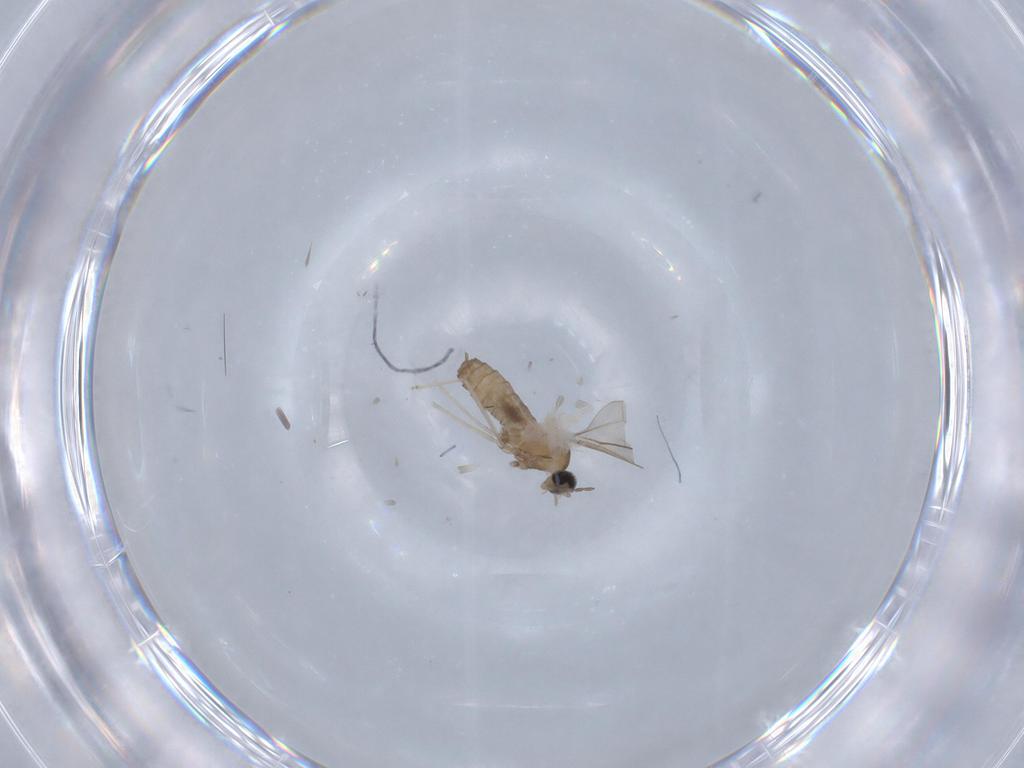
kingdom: Animalia
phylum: Arthropoda
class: Insecta
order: Diptera
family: Cecidomyiidae
